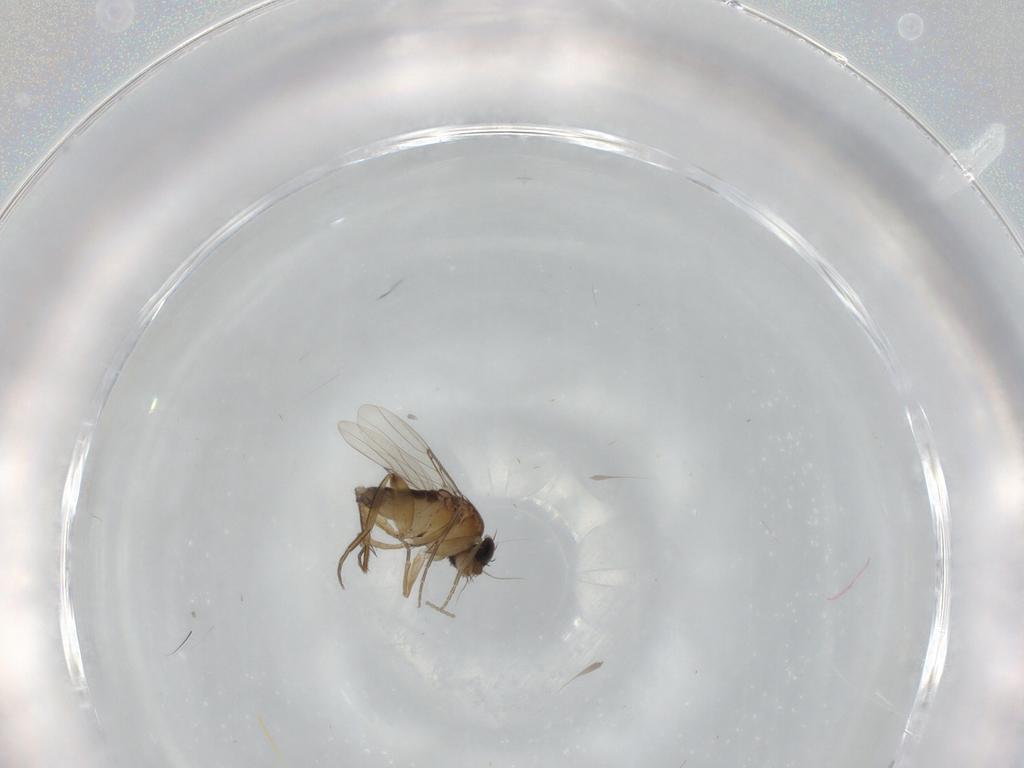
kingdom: Animalia
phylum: Arthropoda
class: Insecta
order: Diptera
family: Phoridae
